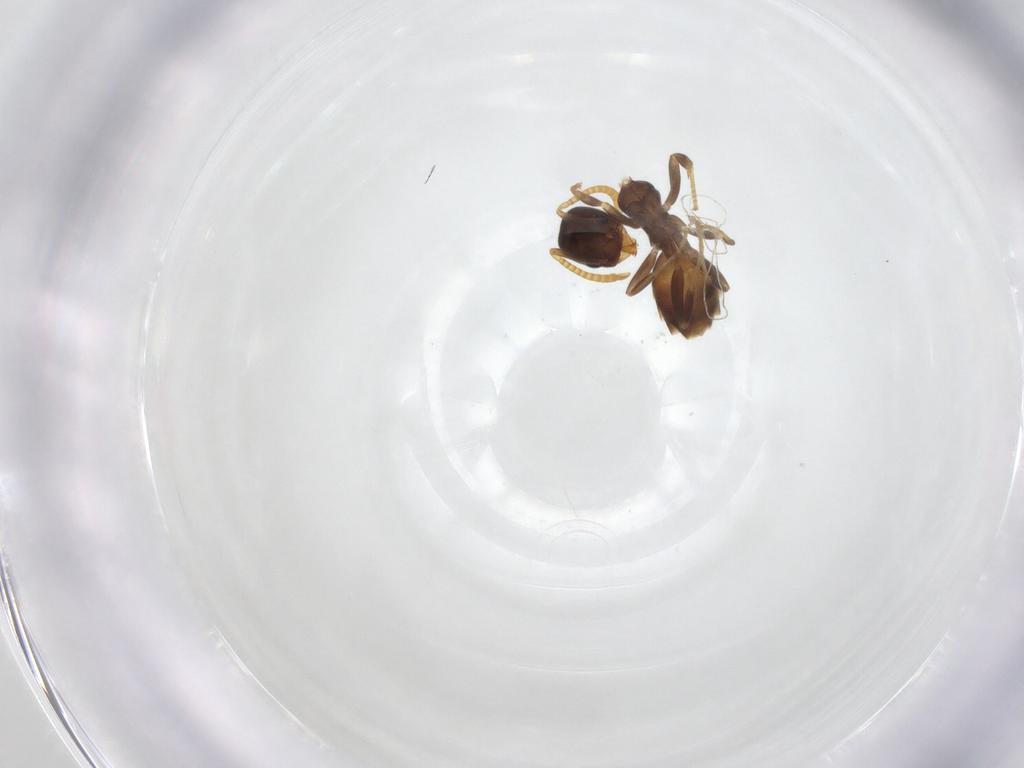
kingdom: Animalia
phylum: Arthropoda
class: Insecta
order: Hymenoptera
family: Formicidae
